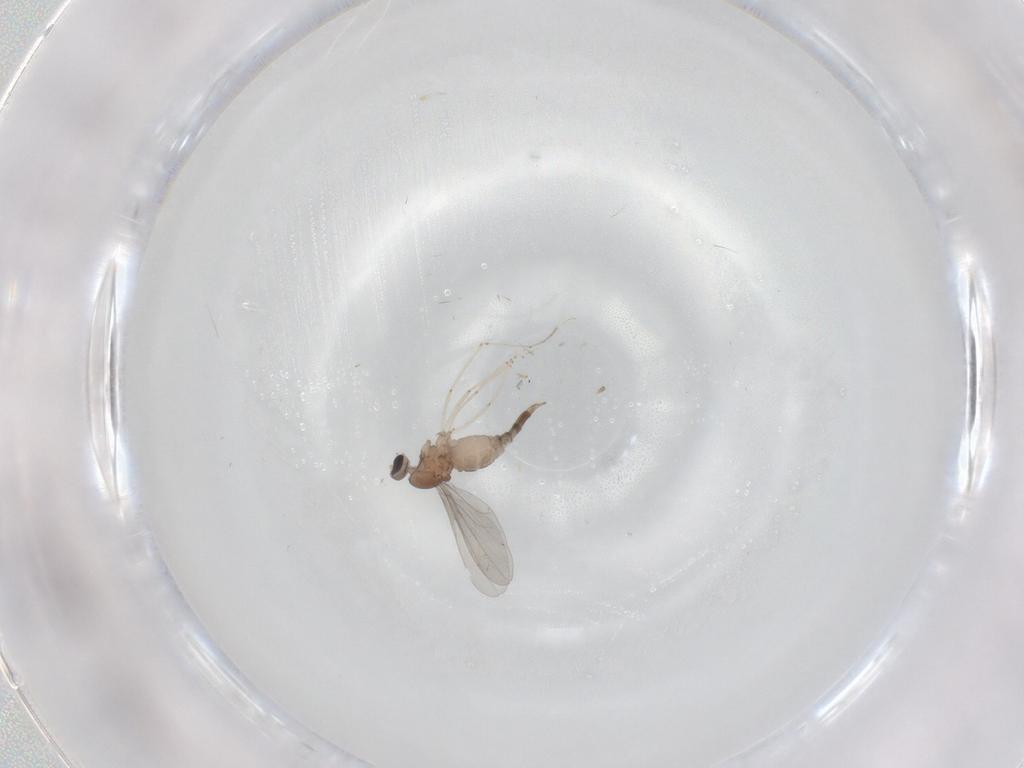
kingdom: Animalia
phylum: Arthropoda
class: Insecta
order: Diptera
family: Cecidomyiidae
